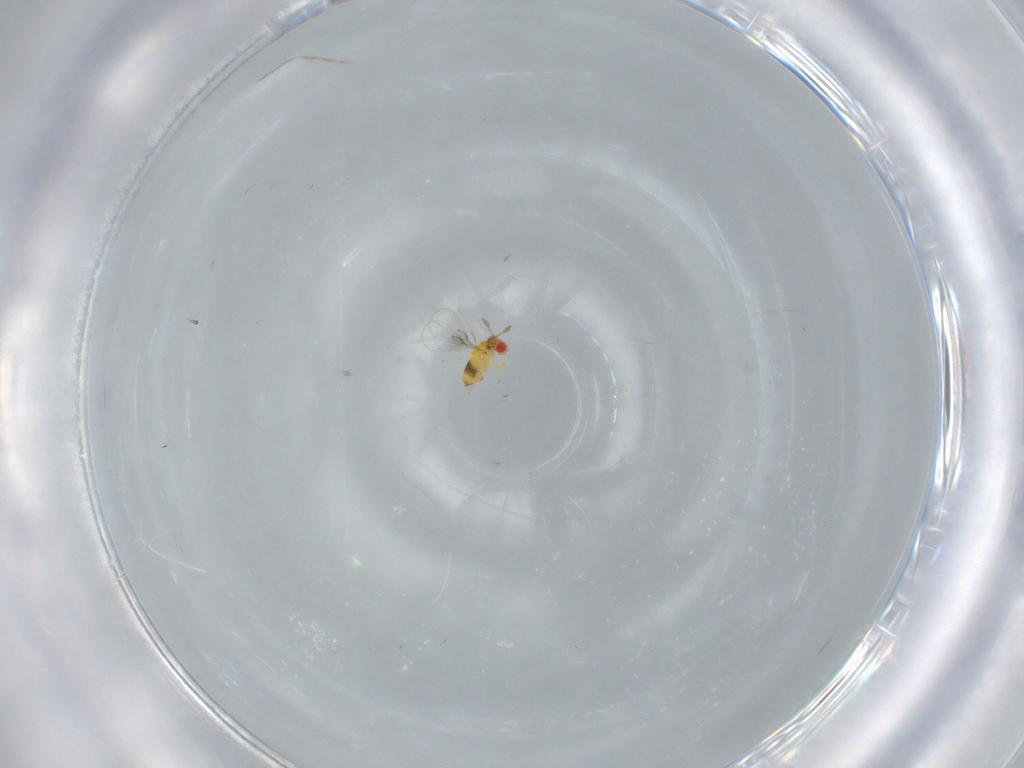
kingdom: Animalia
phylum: Arthropoda
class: Insecta
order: Hymenoptera
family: Trichogrammatidae
